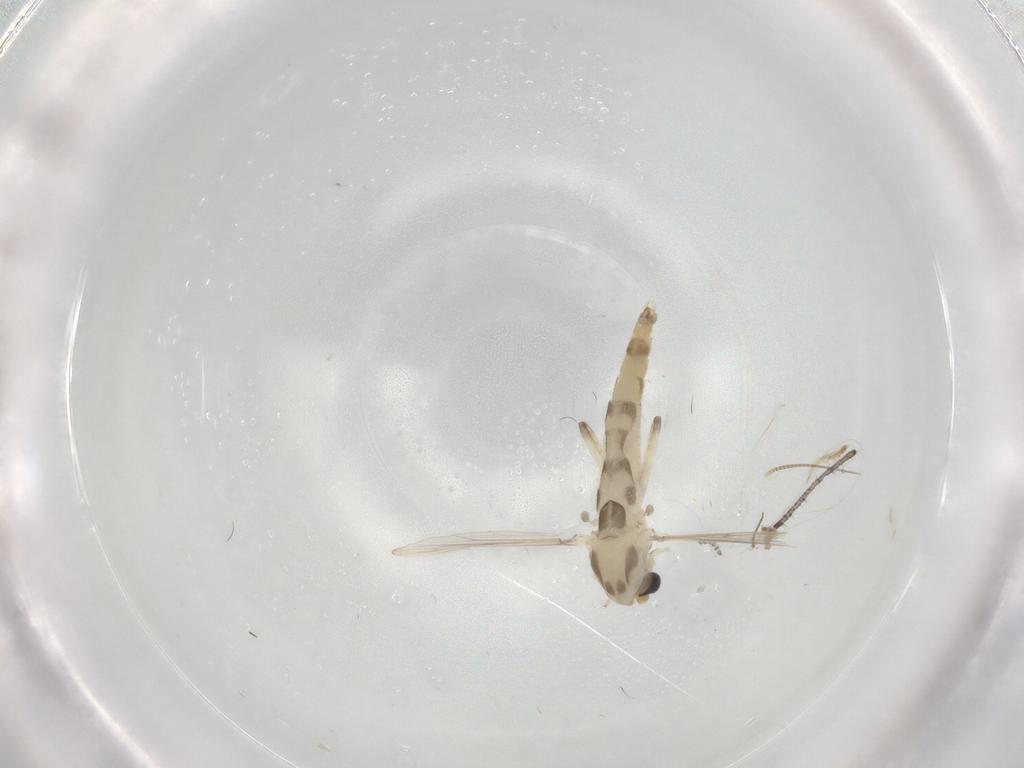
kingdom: Animalia
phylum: Arthropoda
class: Insecta
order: Diptera
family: Chironomidae
